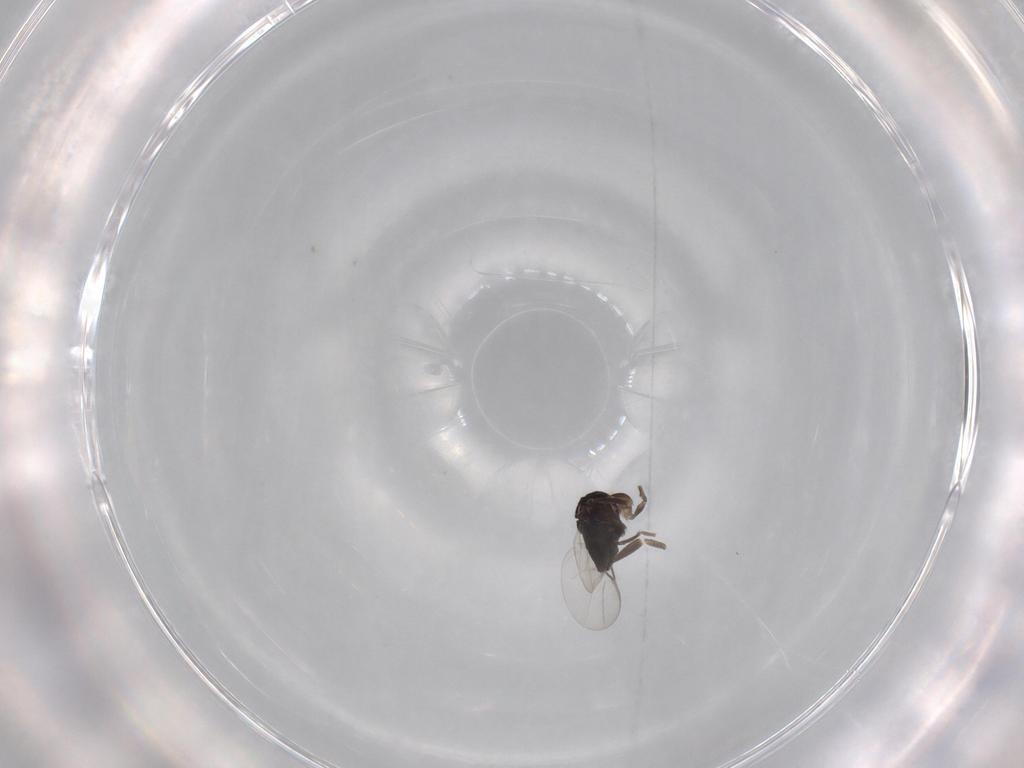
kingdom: Animalia
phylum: Arthropoda
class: Insecta
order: Diptera
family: Phoridae
